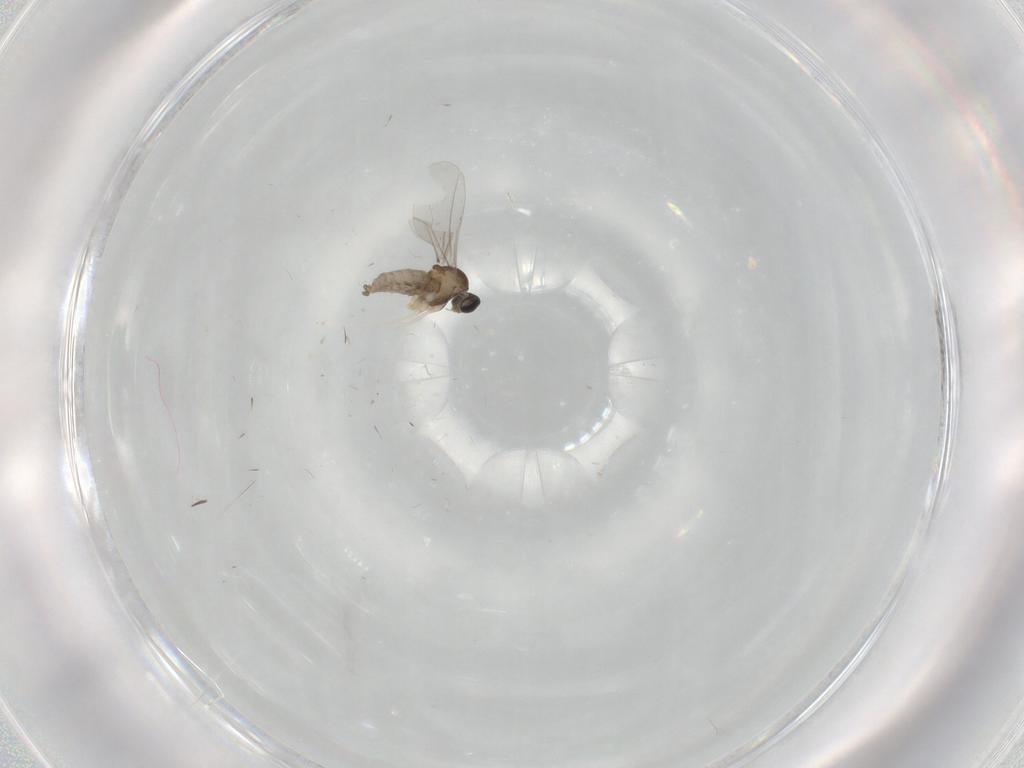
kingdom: Animalia
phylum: Arthropoda
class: Insecta
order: Diptera
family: Cecidomyiidae
